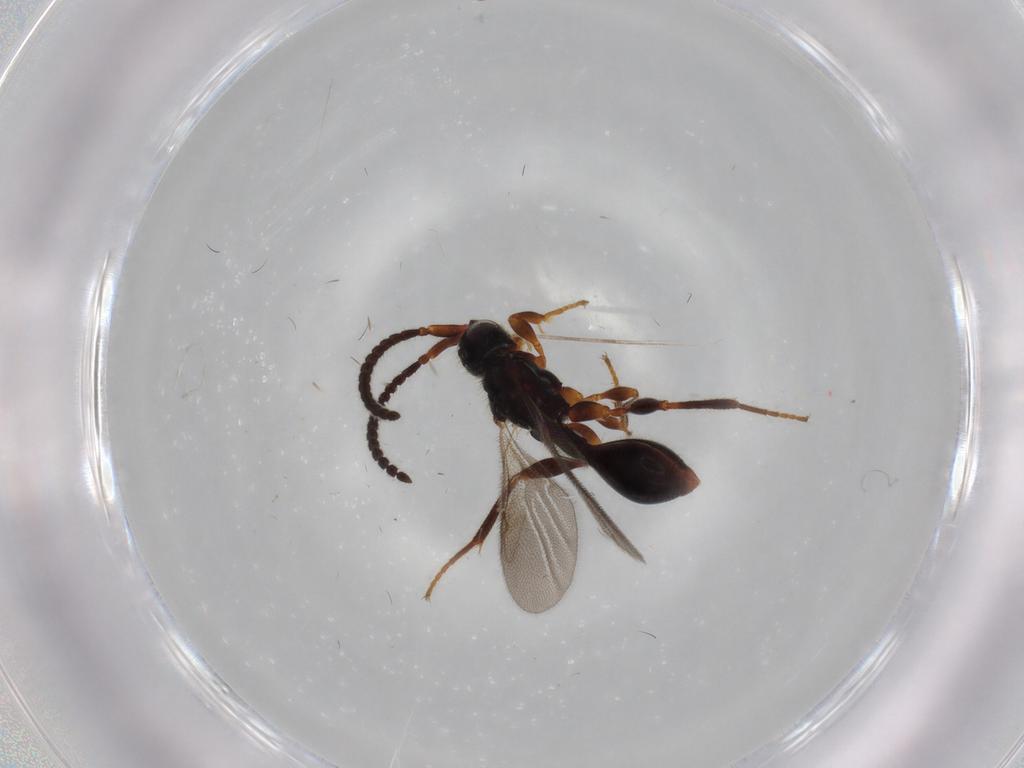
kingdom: Animalia
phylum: Arthropoda
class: Insecta
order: Hymenoptera
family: Diapriidae
